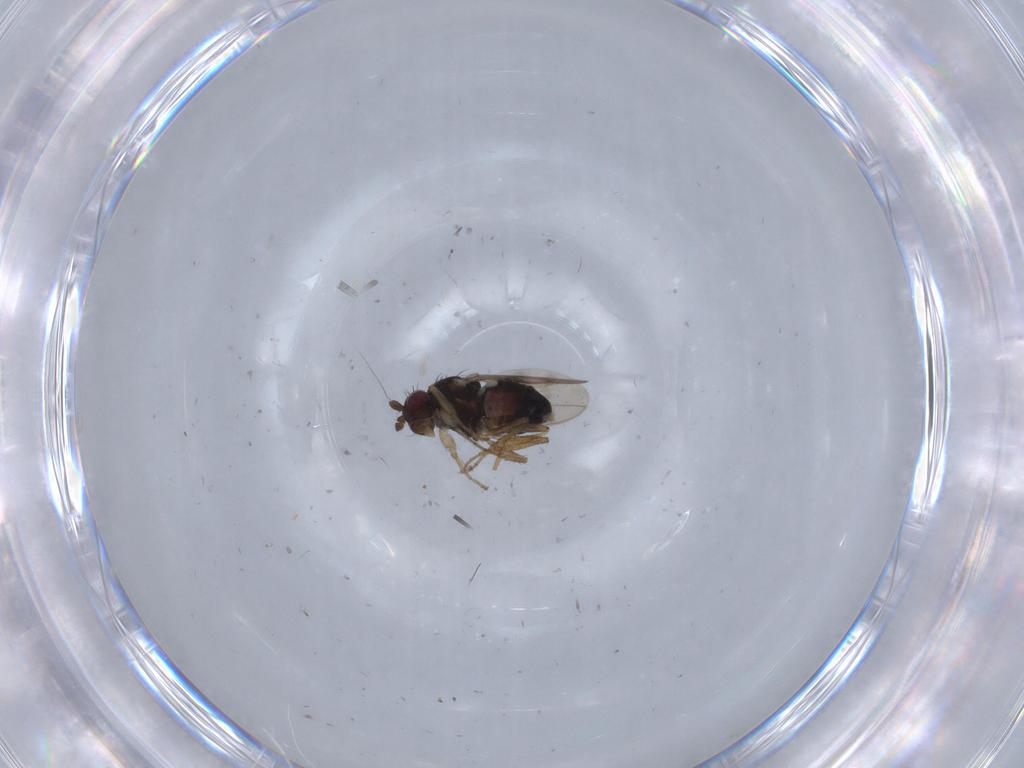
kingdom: Animalia
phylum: Arthropoda
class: Insecta
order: Diptera
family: Sphaeroceridae
